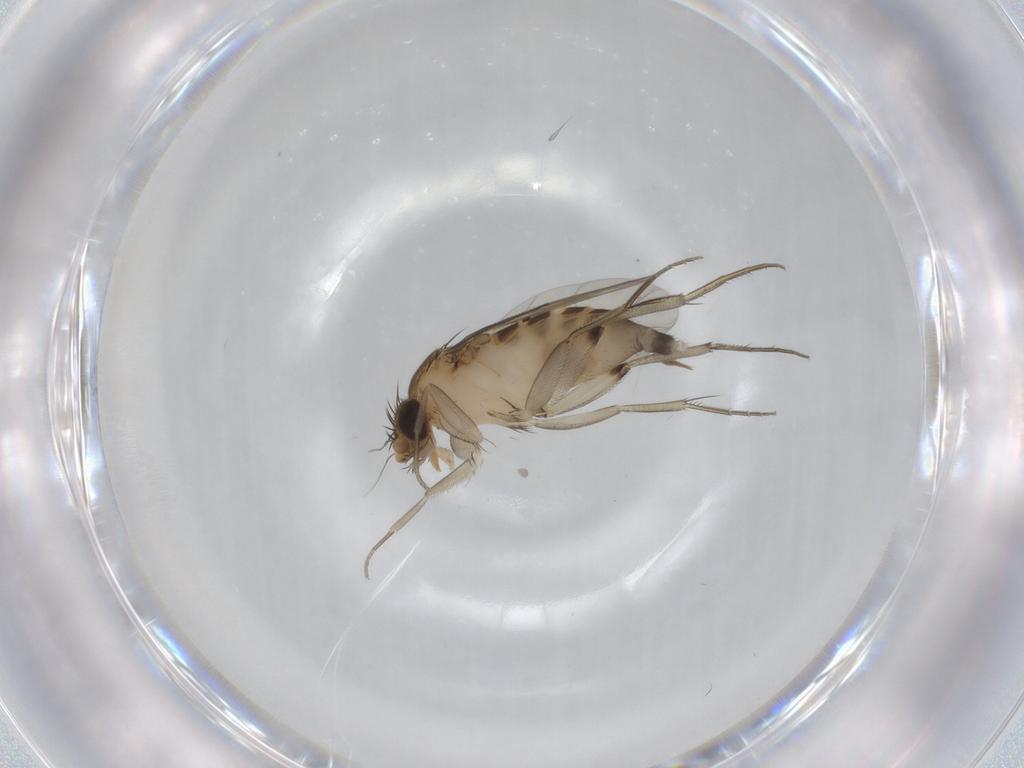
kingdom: Animalia
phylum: Arthropoda
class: Insecta
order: Diptera
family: Phoridae
